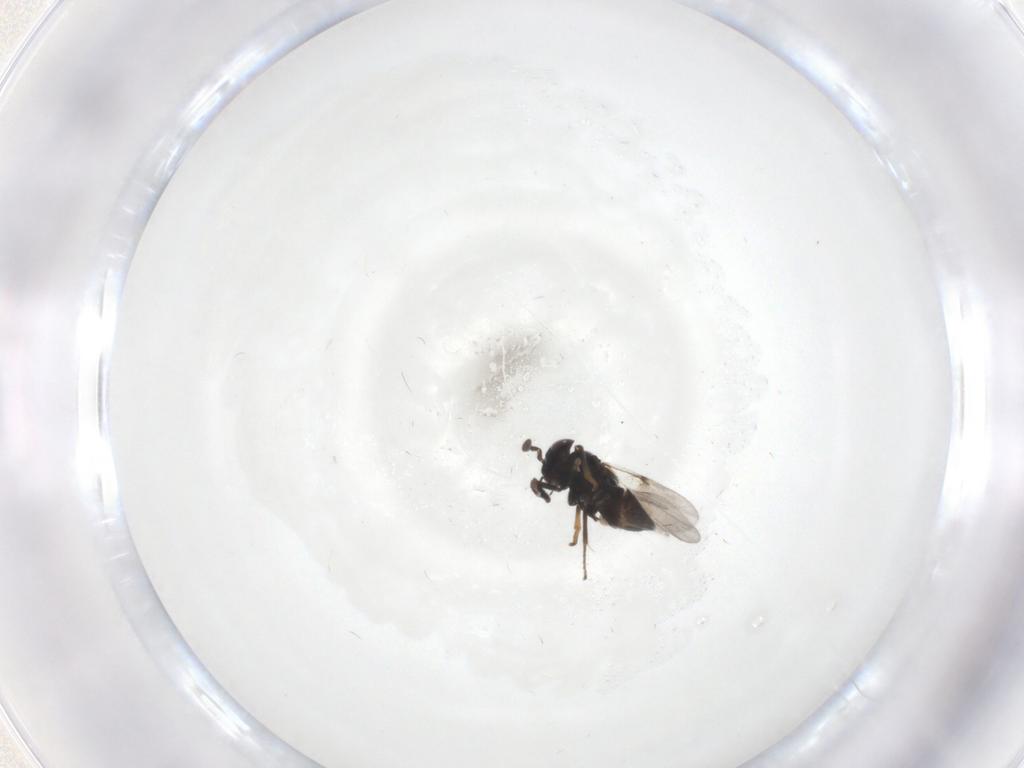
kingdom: Animalia
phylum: Arthropoda
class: Insecta
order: Hymenoptera
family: Encyrtidae
